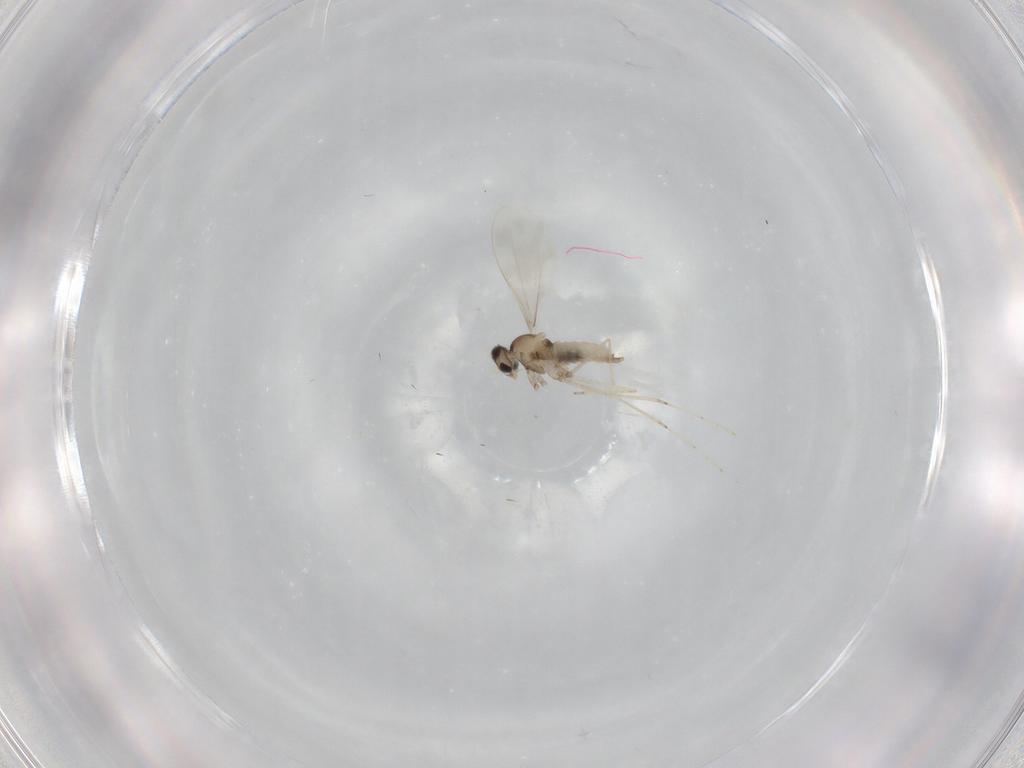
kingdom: Animalia
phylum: Arthropoda
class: Insecta
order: Diptera
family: Cecidomyiidae
